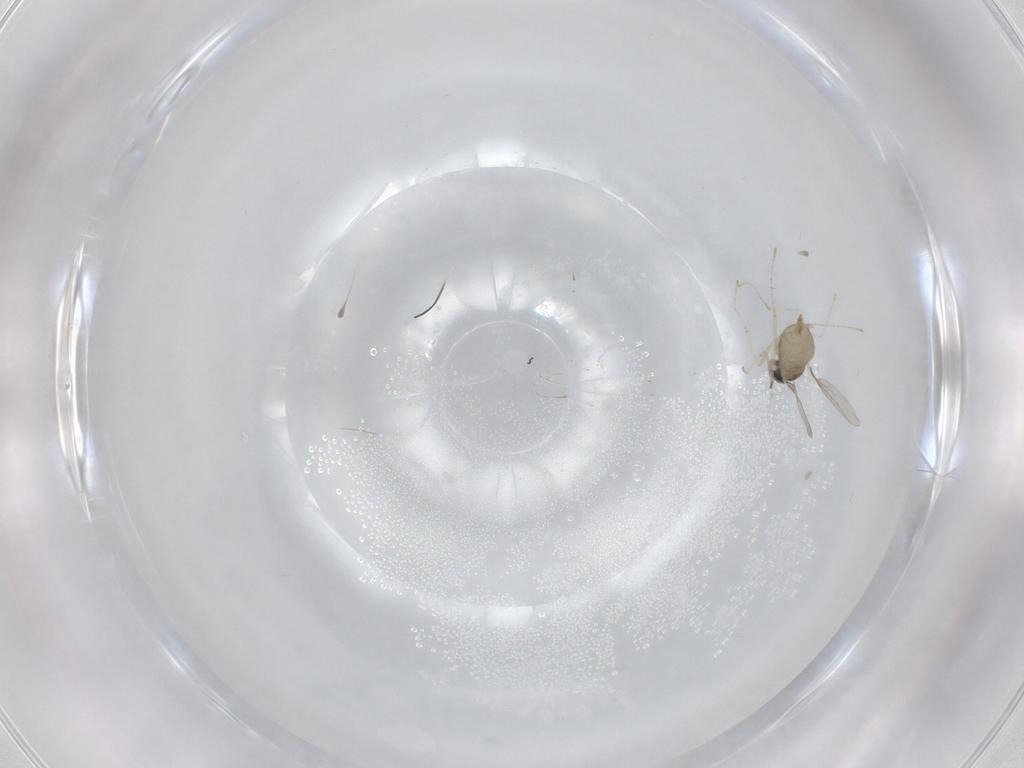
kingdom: Animalia
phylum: Arthropoda
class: Insecta
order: Diptera
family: Cecidomyiidae
